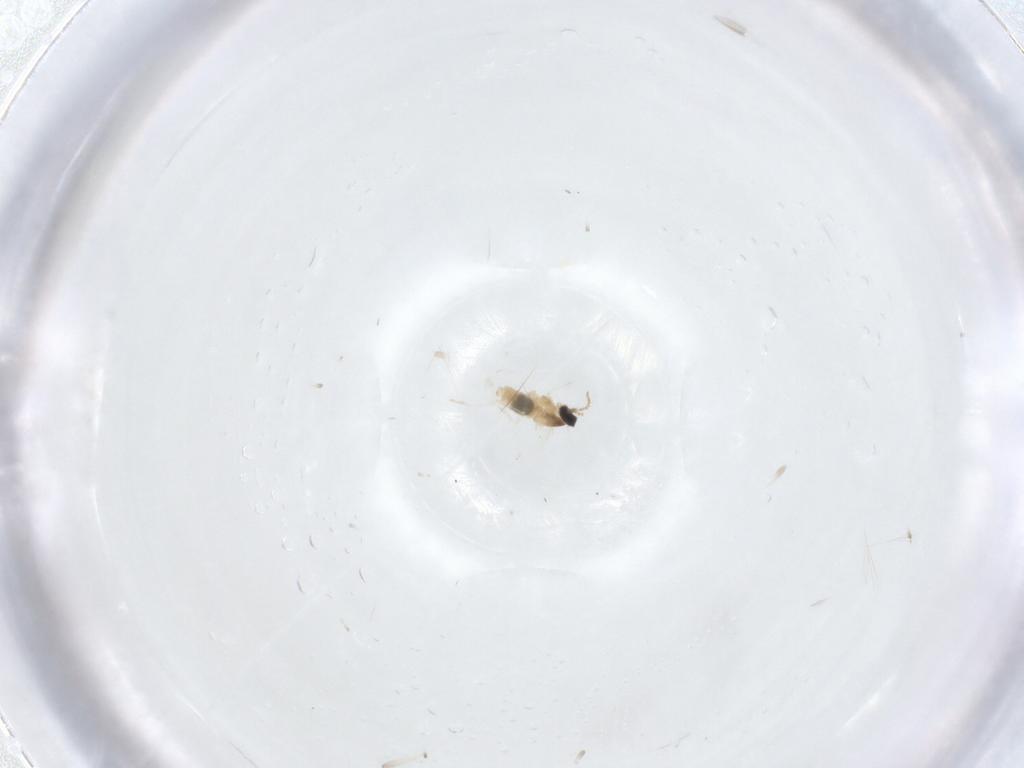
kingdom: Animalia
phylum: Arthropoda
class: Insecta
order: Diptera
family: Cecidomyiidae
